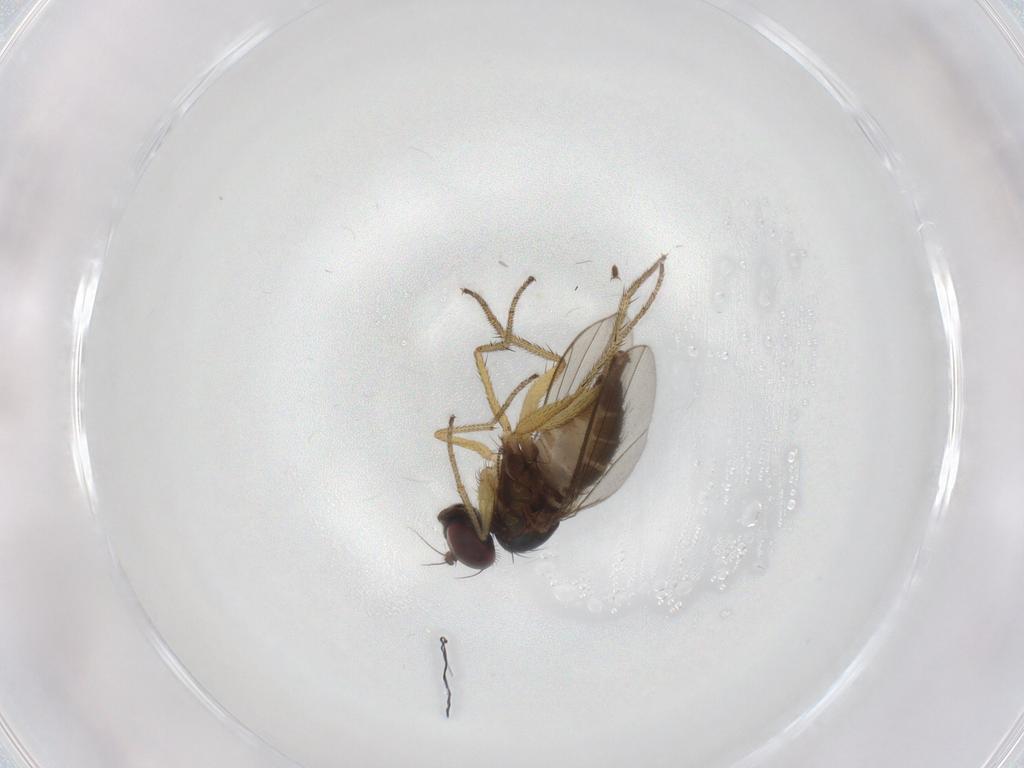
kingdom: Animalia
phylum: Arthropoda
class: Insecta
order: Diptera
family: Dolichopodidae
